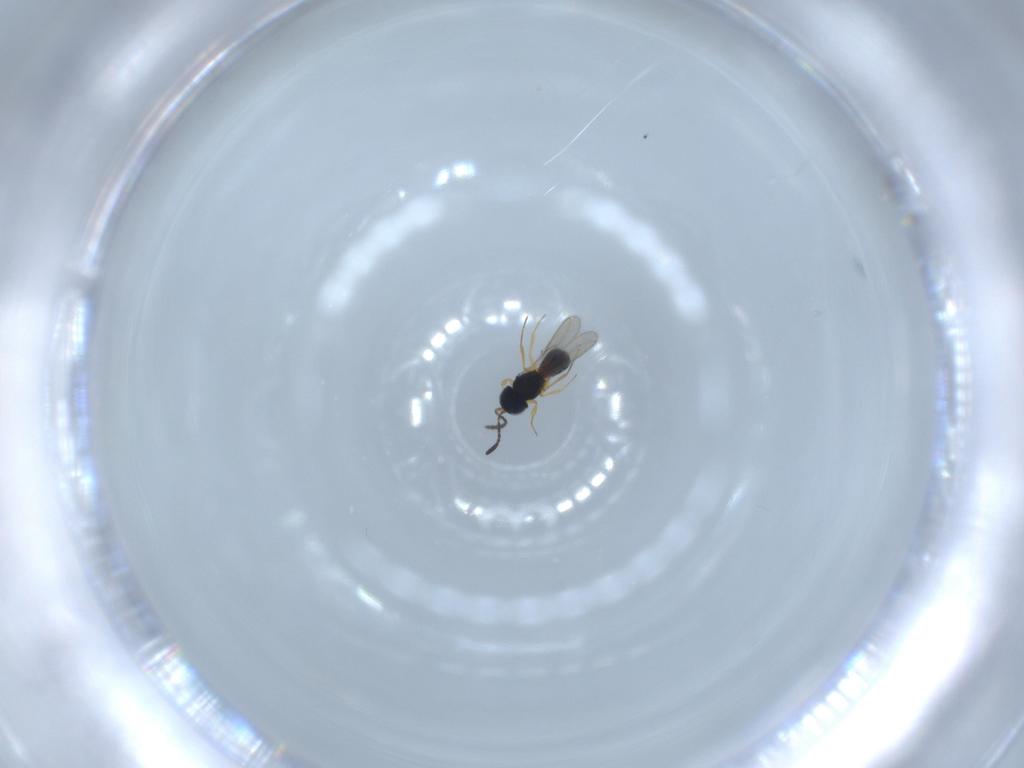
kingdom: Animalia
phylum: Arthropoda
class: Insecta
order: Hymenoptera
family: Scelionidae
